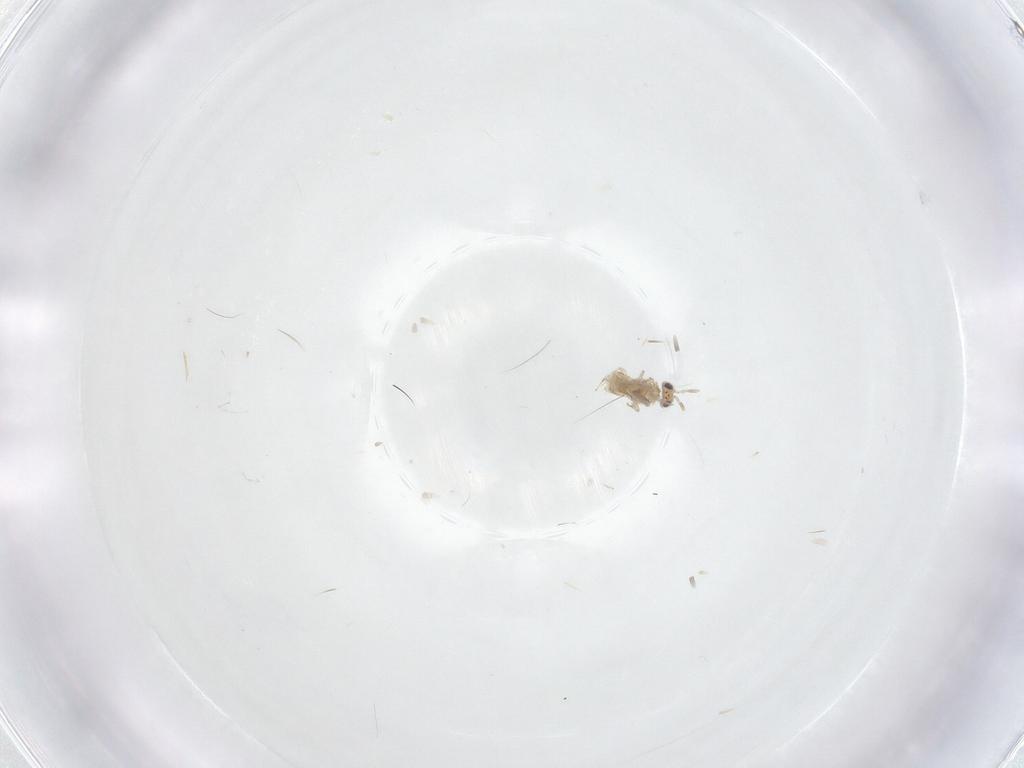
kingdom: Animalia
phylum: Arthropoda
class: Insecta
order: Hymenoptera
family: Aphelinidae
